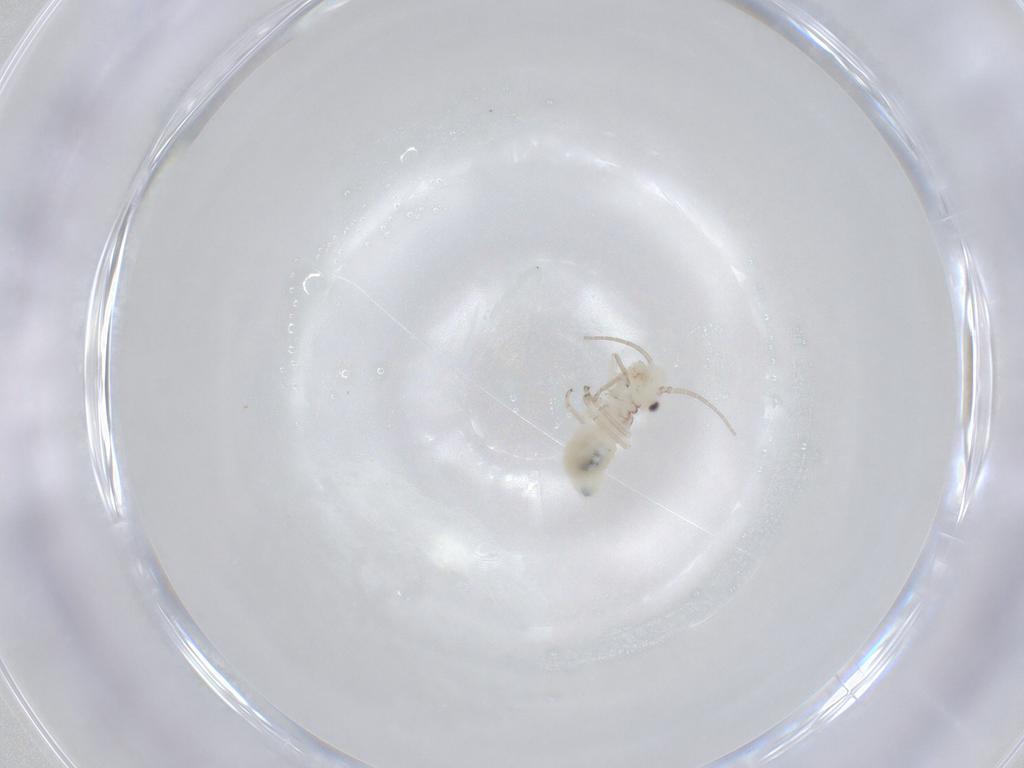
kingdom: Animalia
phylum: Arthropoda
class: Insecta
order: Psocodea
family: Caeciliusidae
